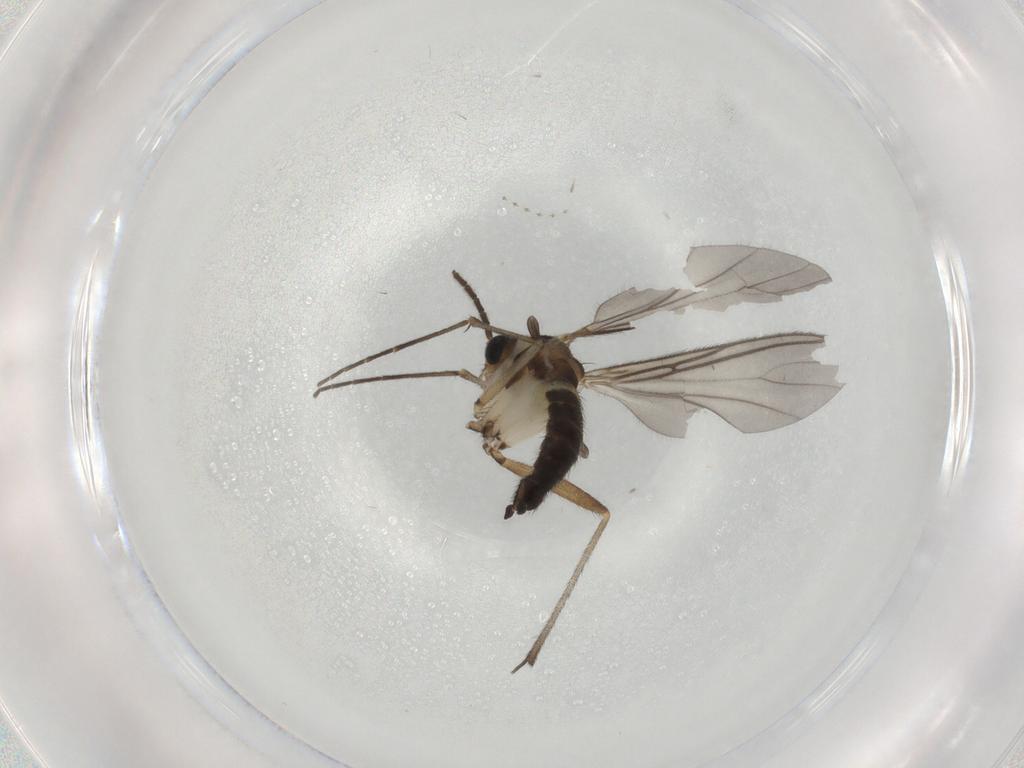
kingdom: Animalia
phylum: Arthropoda
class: Insecta
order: Diptera
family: Sciaridae
